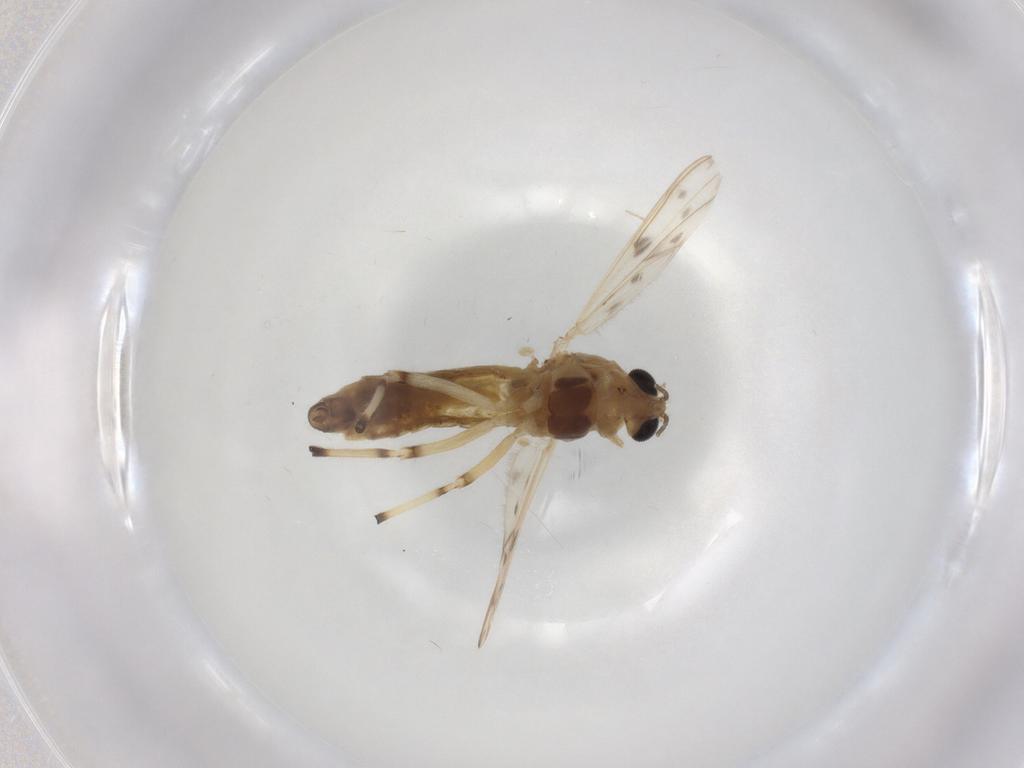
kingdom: Animalia
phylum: Arthropoda
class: Insecta
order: Diptera
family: Chironomidae
